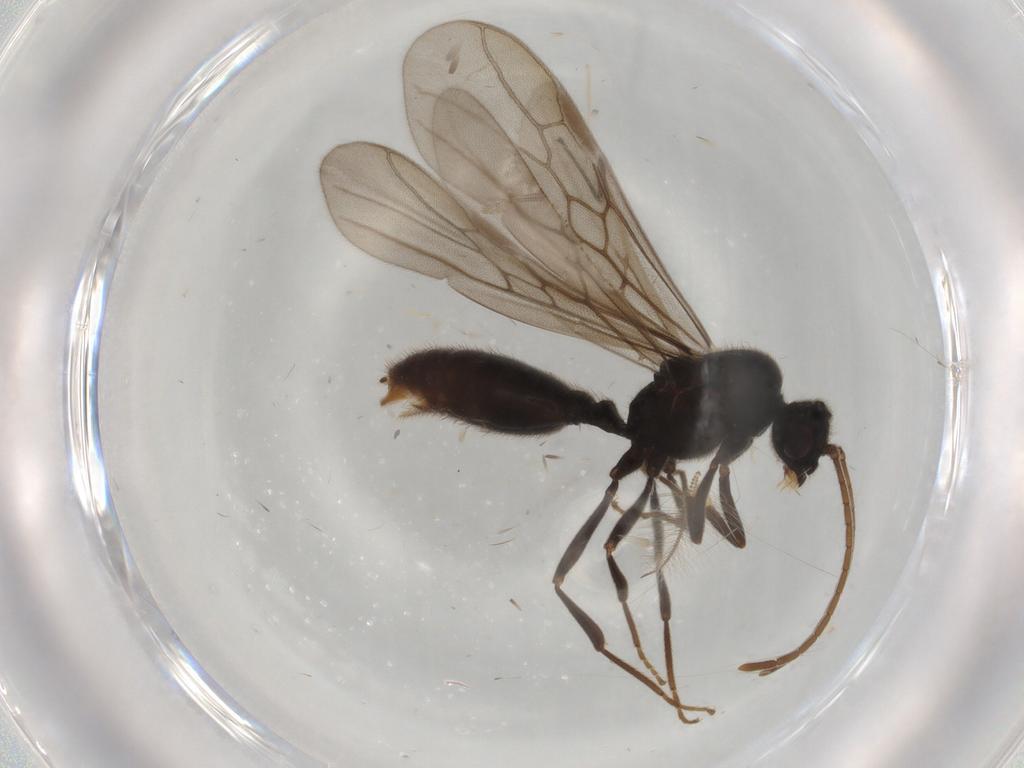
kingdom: Animalia
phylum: Arthropoda
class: Insecta
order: Hymenoptera
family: Formicidae
